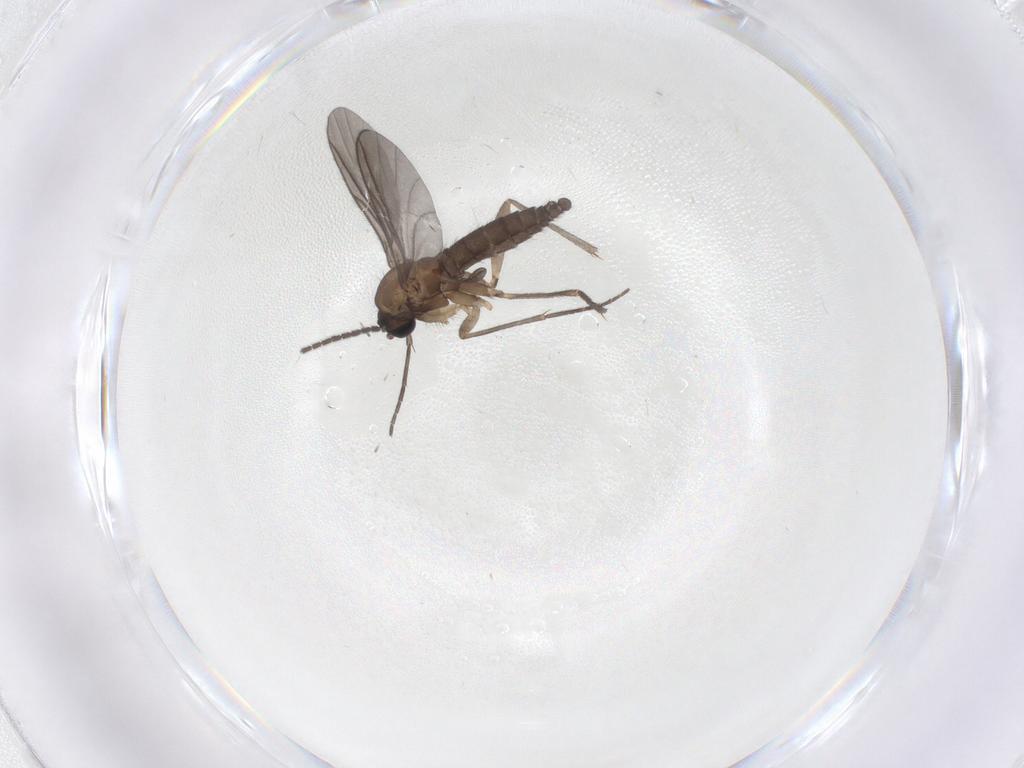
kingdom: Animalia
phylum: Arthropoda
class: Insecta
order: Diptera
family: Sciaridae
